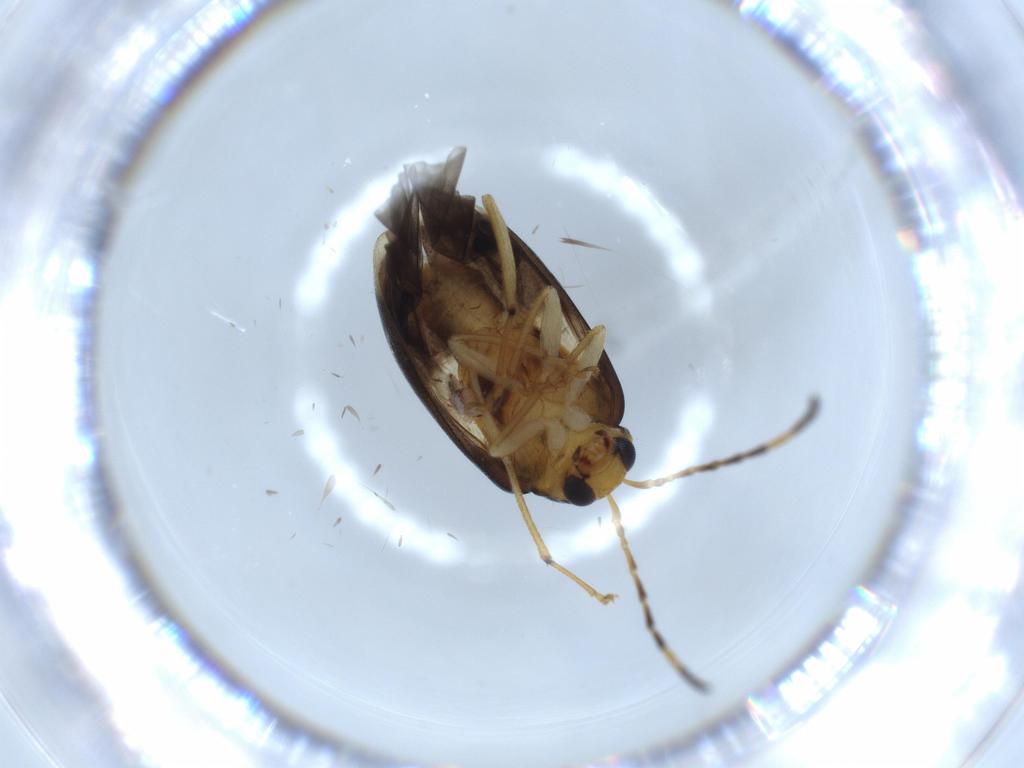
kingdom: Animalia
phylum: Arthropoda
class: Insecta
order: Coleoptera
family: Chrysomelidae
